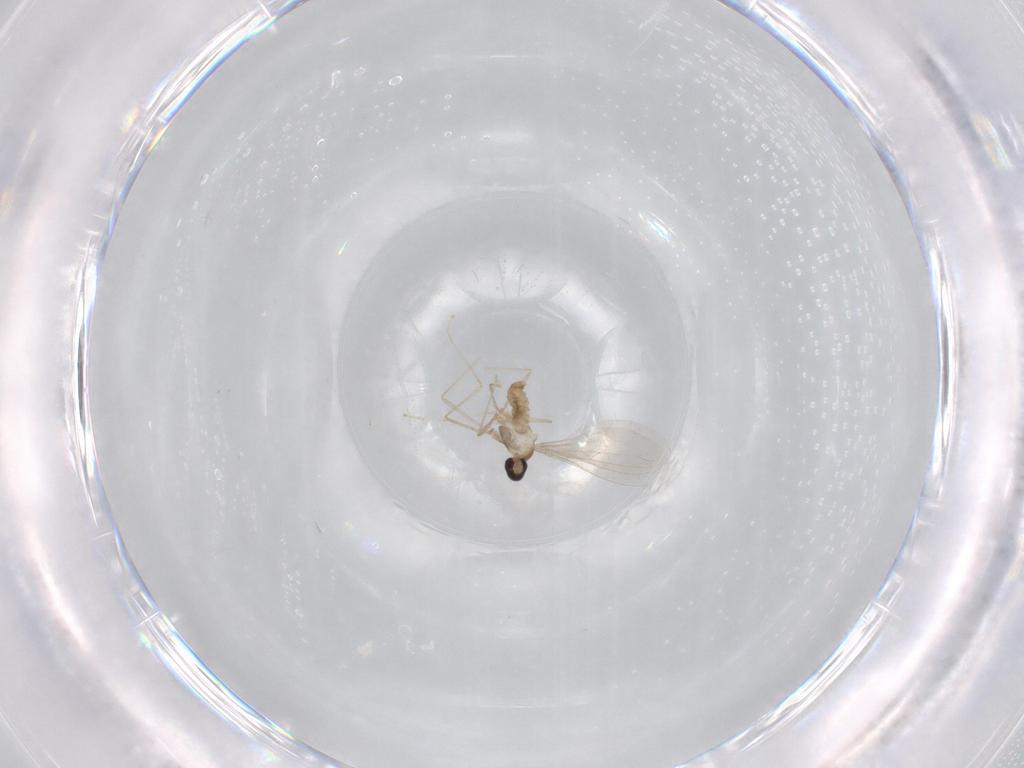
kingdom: Animalia
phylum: Arthropoda
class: Insecta
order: Diptera
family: Cecidomyiidae
